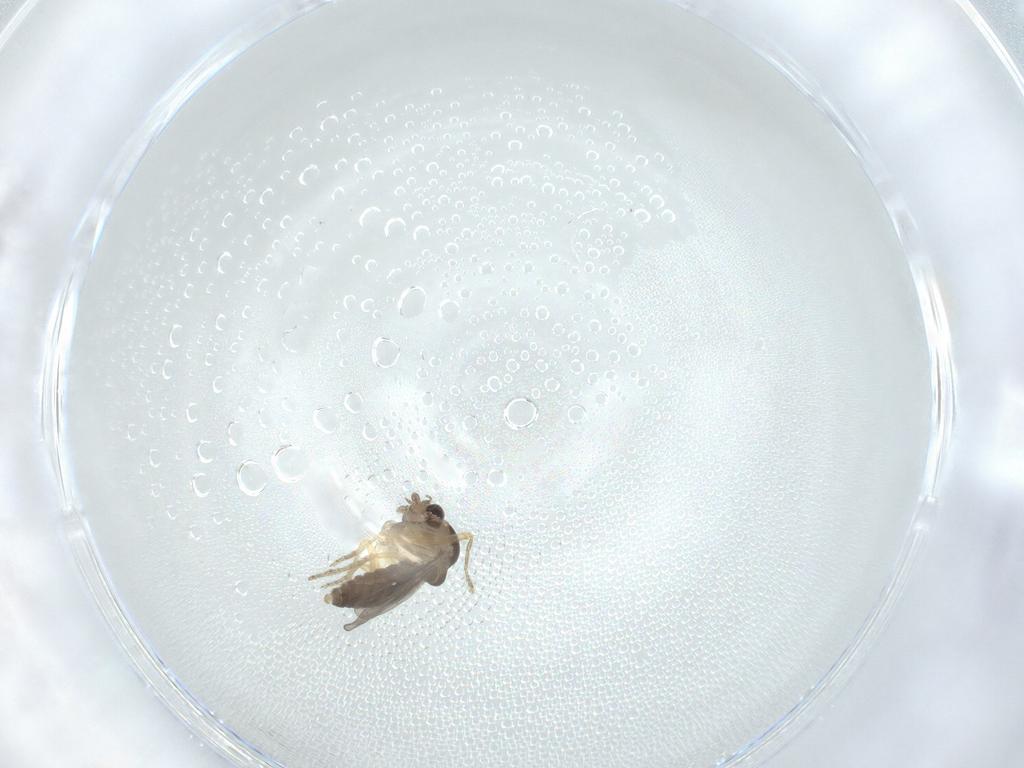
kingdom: Animalia
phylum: Arthropoda
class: Insecta
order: Diptera
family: Ceratopogonidae
